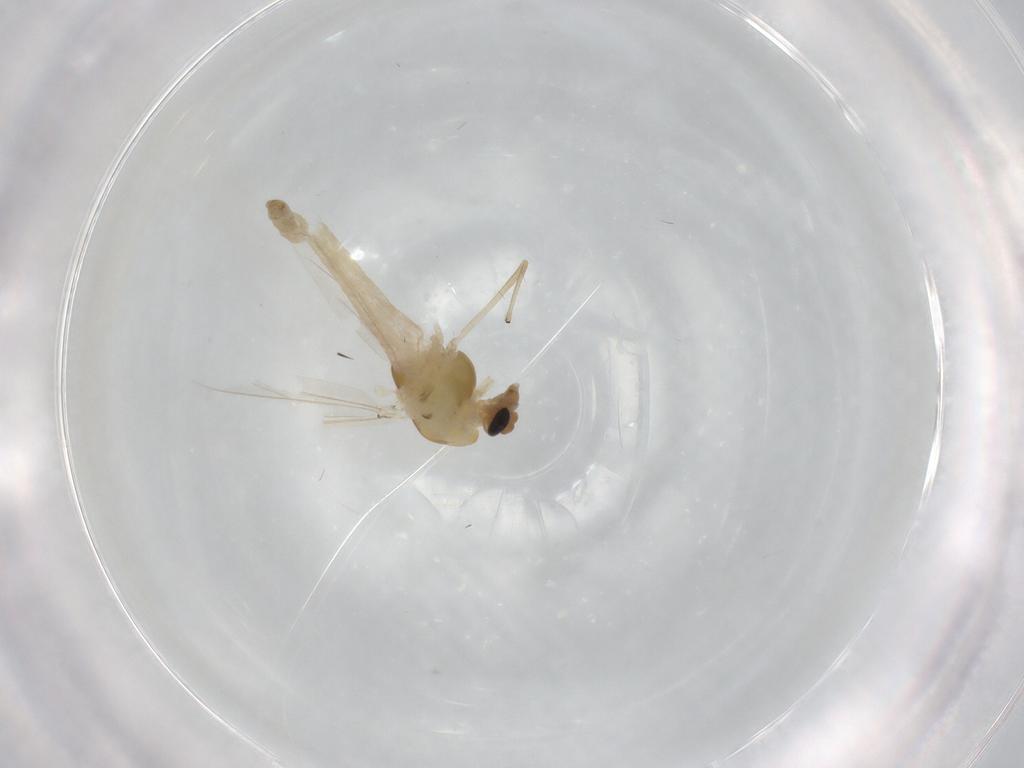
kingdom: Animalia
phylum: Arthropoda
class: Insecta
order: Diptera
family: Chironomidae
